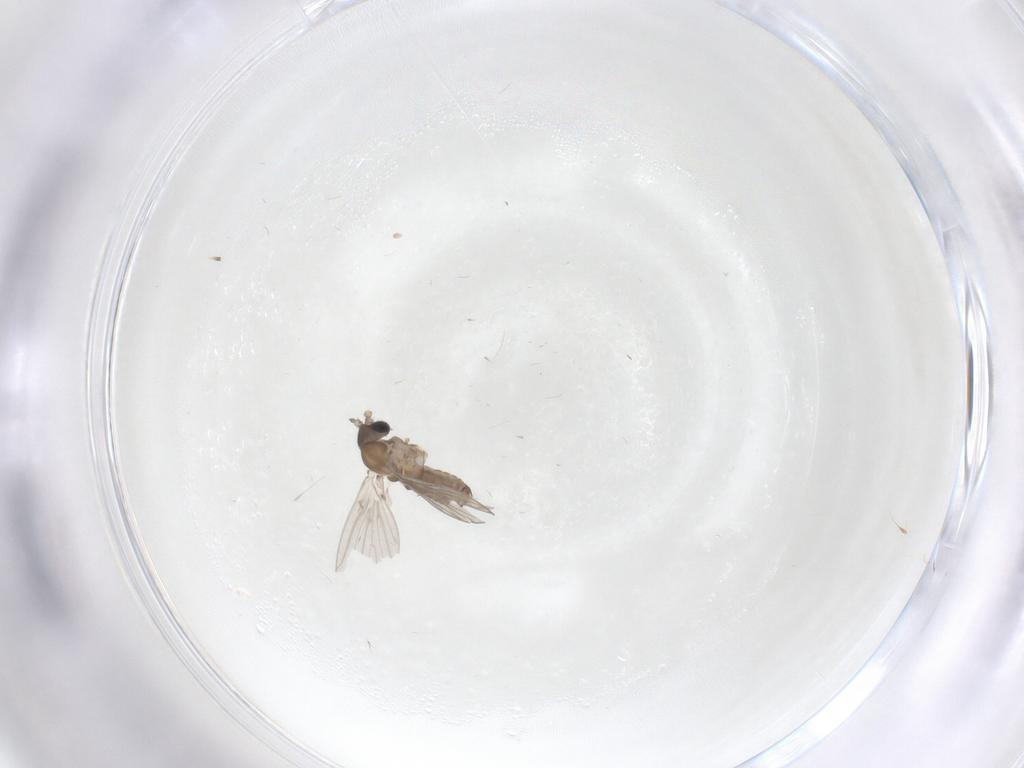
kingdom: Animalia
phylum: Arthropoda
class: Insecta
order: Diptera
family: Psychodidae
